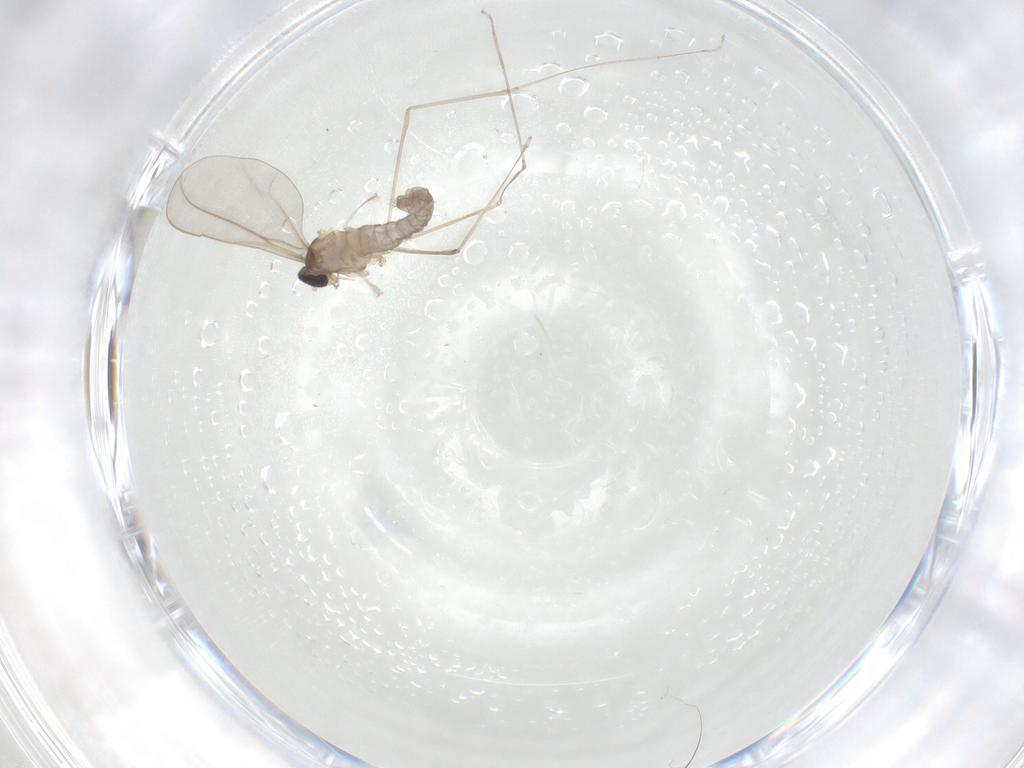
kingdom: Animalia
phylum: Arthropoda
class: Insecta
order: Diptera
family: Cecidomyiidae
